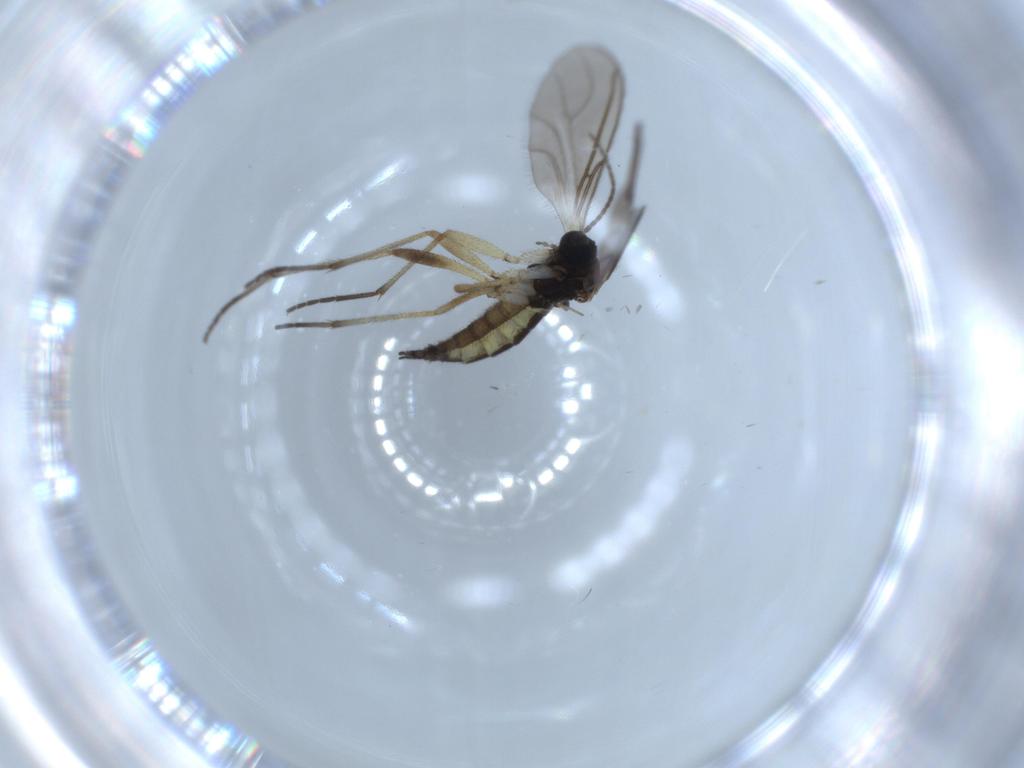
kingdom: Animalia
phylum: Arthropoda
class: Insecta
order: Diptera
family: Sciaridae
